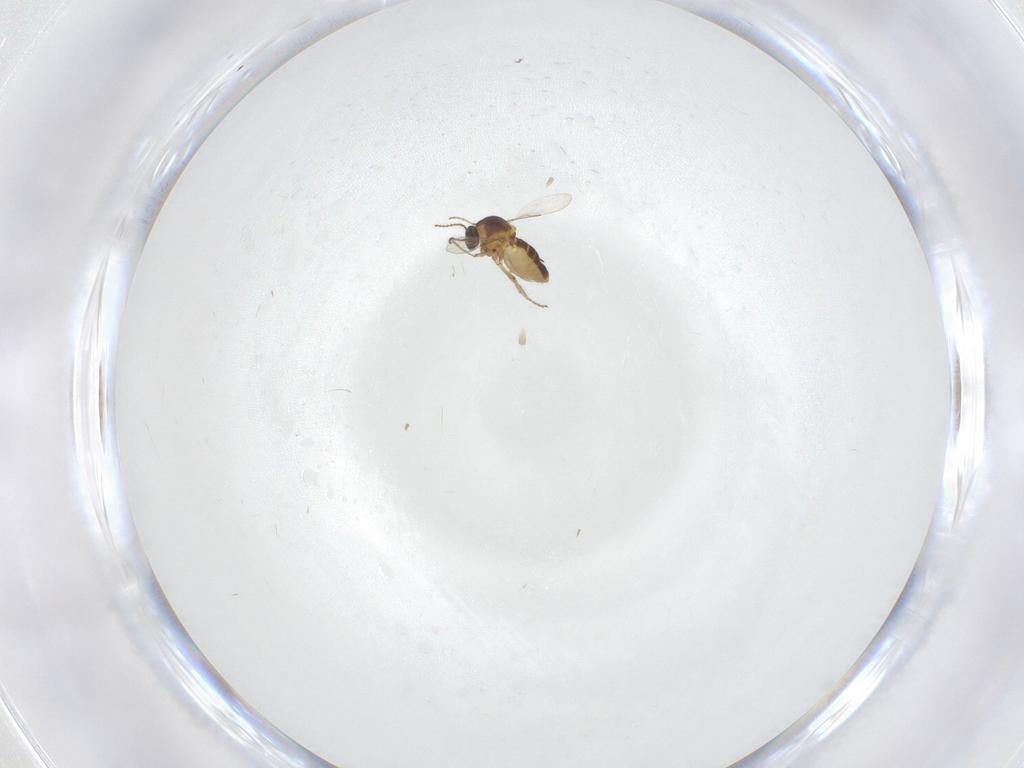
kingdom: Animalia
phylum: Arthropoda
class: Insecta
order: Diptera
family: Ceratopogonidae
